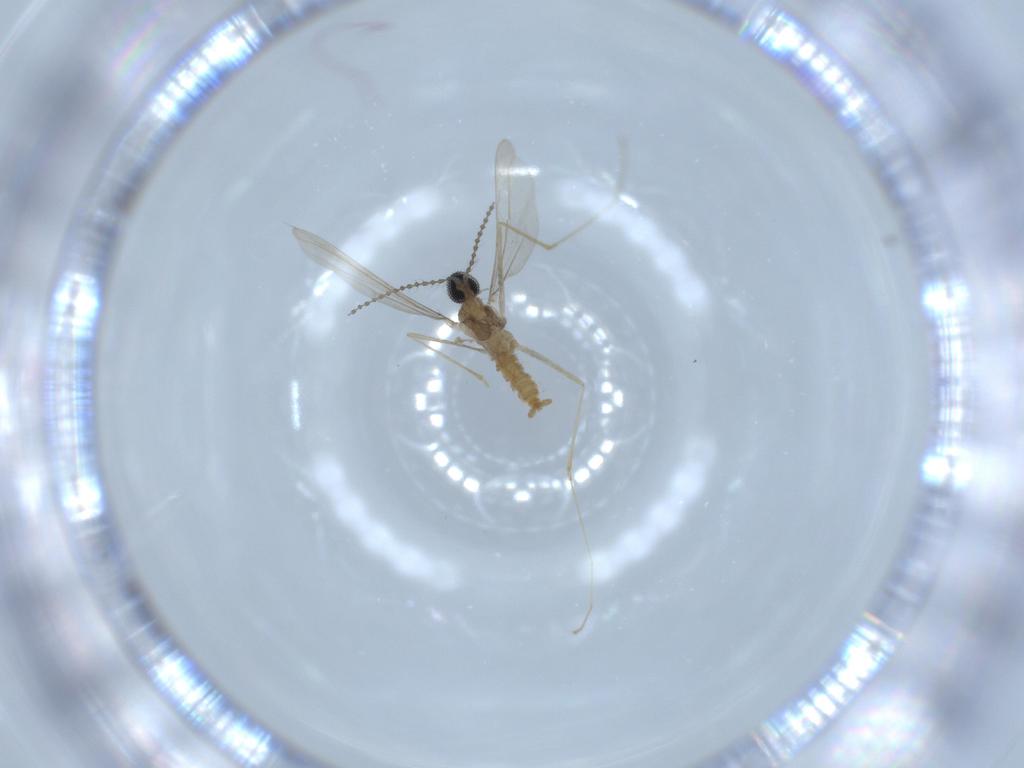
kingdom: Animalia
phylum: Arthropoda
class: Insecta
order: Diptera
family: Cecidomyiidae
